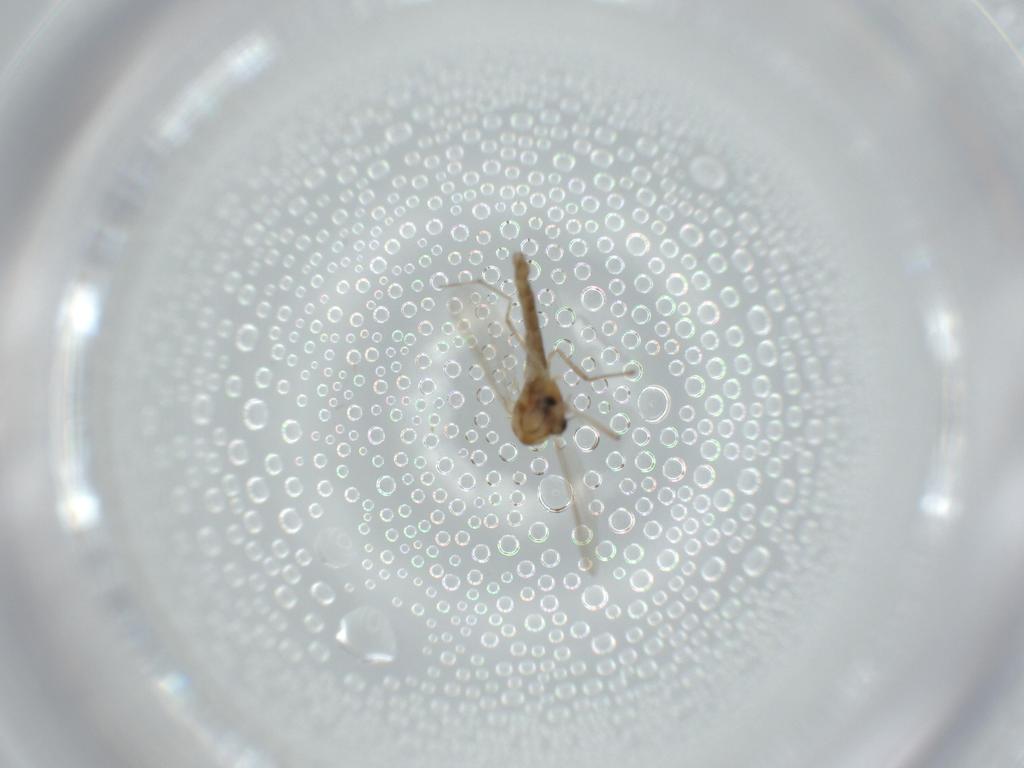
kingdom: Animalia
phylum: Arthropoda
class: Insecta
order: Diptera
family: Chironomidae
